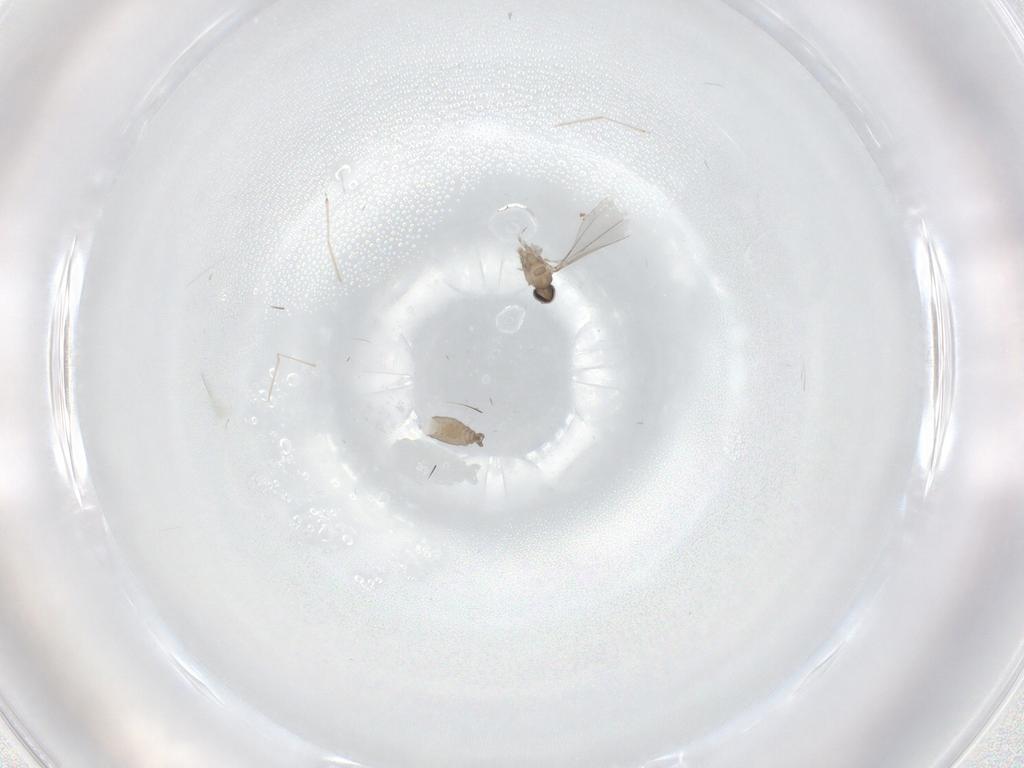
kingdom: Animalia
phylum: Arthropoda
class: Insecta
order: Diptera
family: Cecidomyiidae
